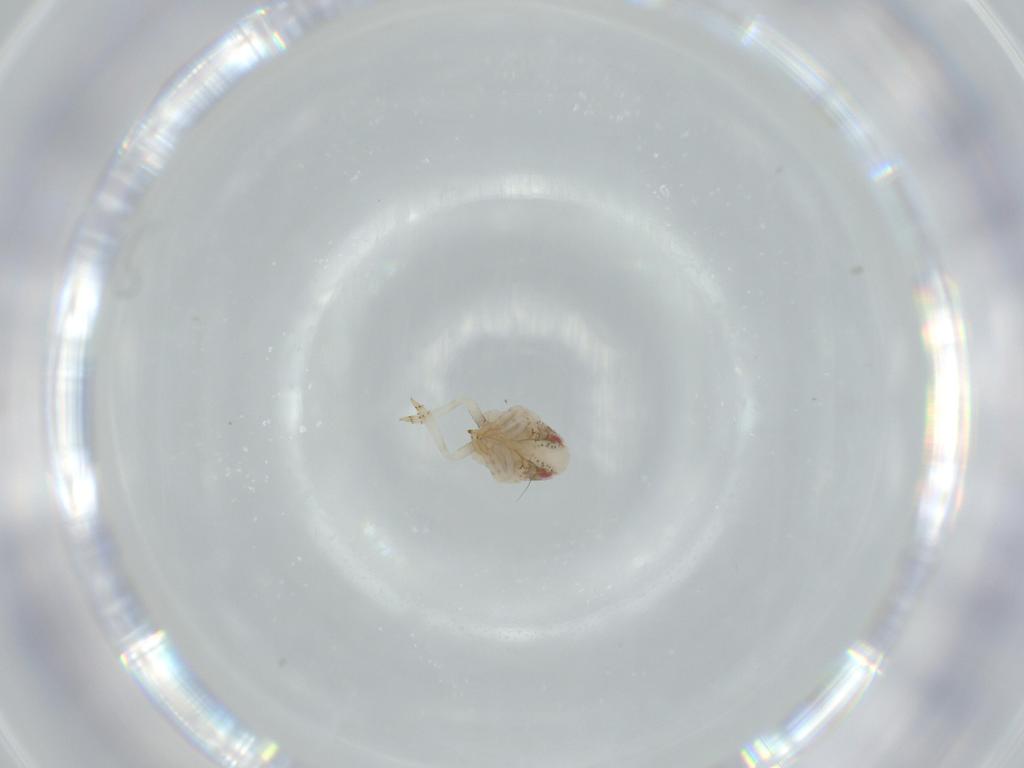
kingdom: Animalia
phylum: Arthropoda
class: Insecta
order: Hemiptera
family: Acanaloniidae
